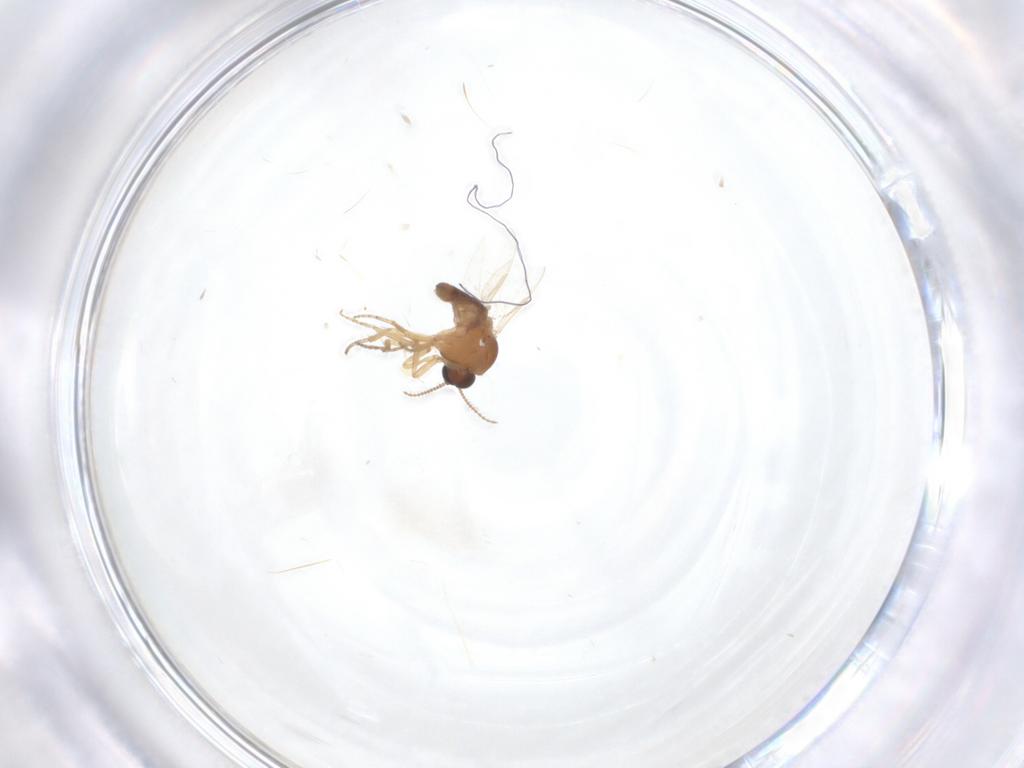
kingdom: Animalia
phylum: Arthropoda
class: Insecta
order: Diptera
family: Ceratopogonidae
